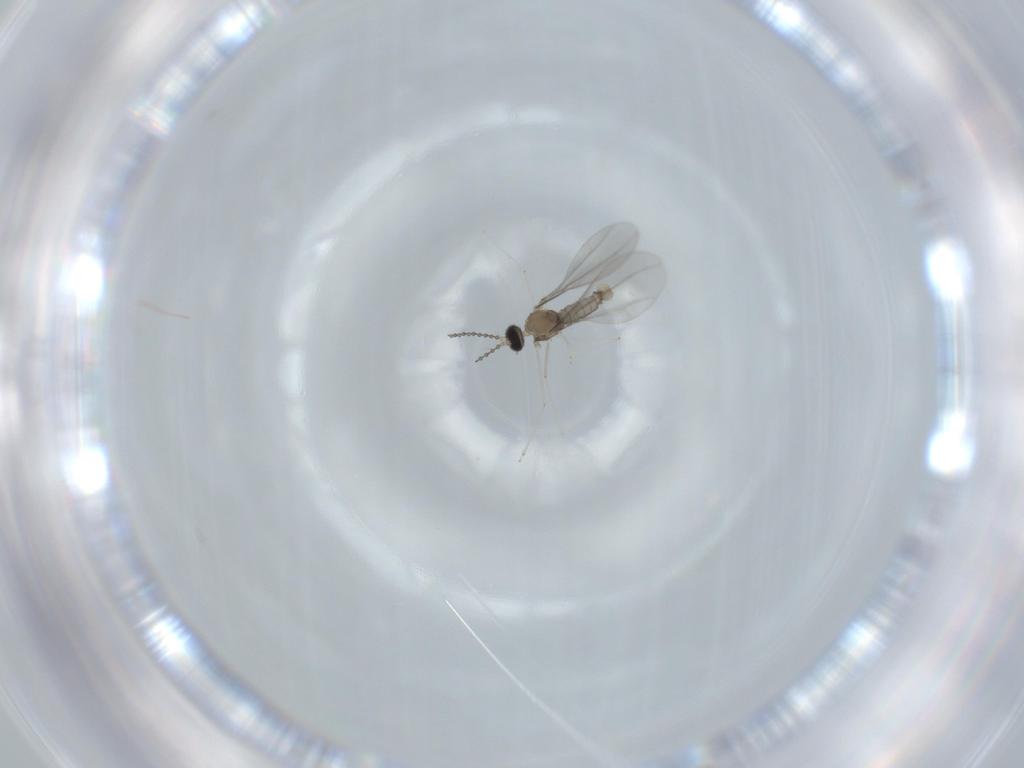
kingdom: Animalia
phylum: Arthropoda
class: Insecta
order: Diptera
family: Cecidomyiidae
